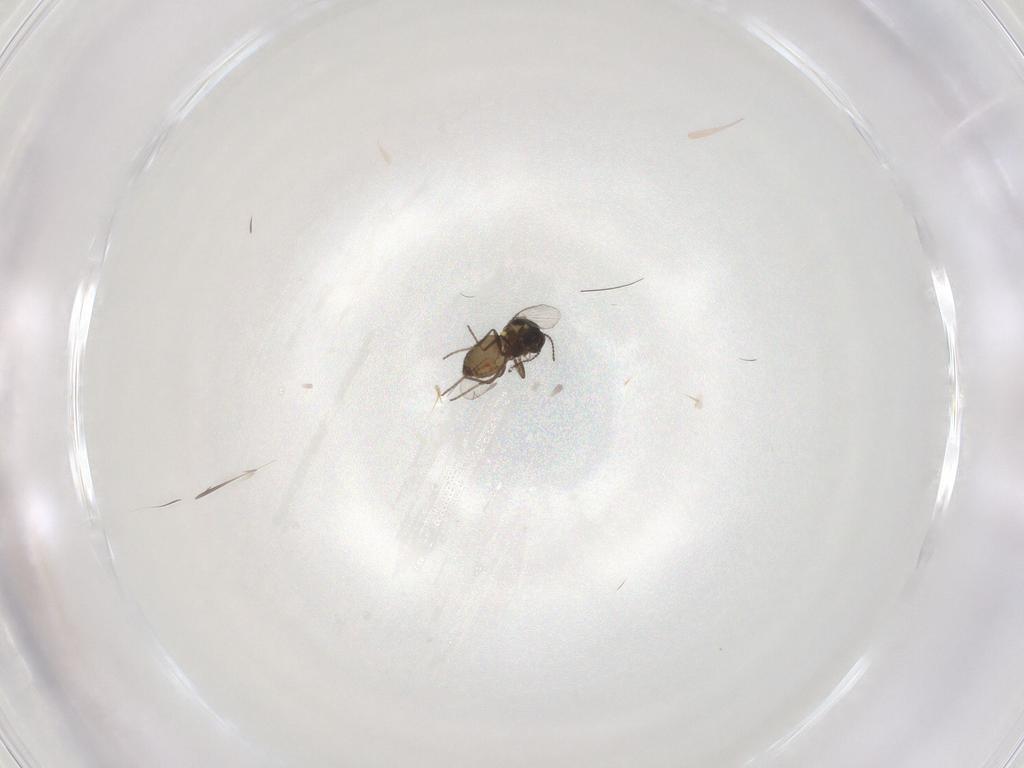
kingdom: Animalia
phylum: Arthropoda
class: Insecta
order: Diptera
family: Ceratopogonidae
